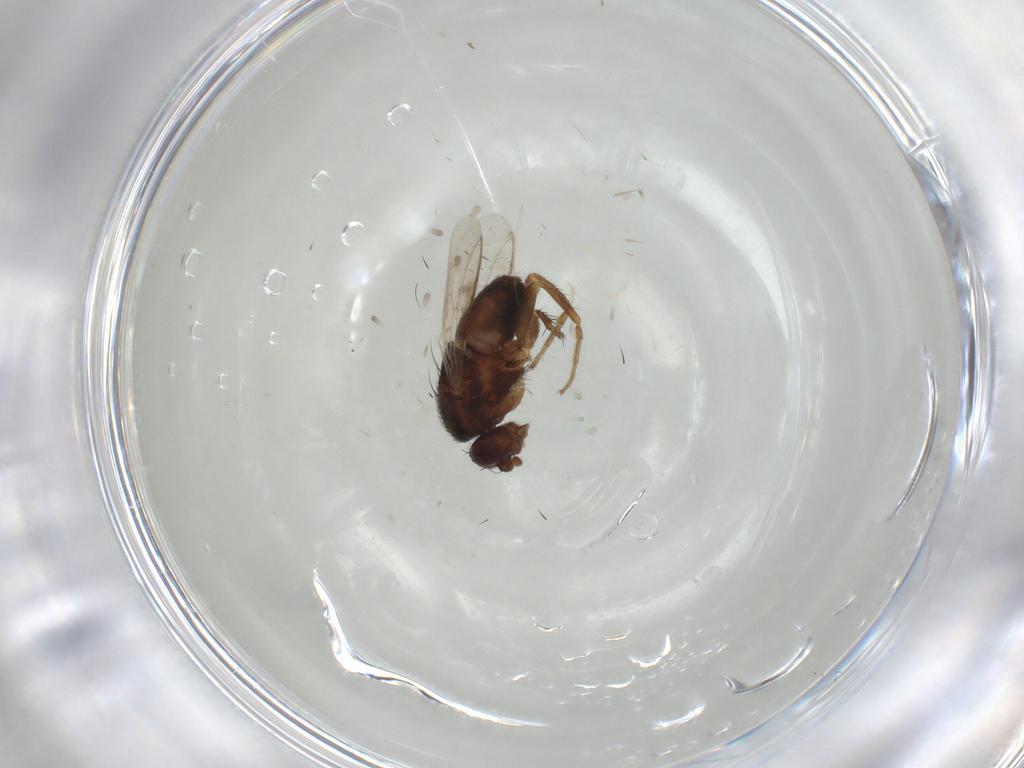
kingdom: Animalia
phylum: Arthropoda
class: Insecta
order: Diptera
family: Sphaeroceridae
